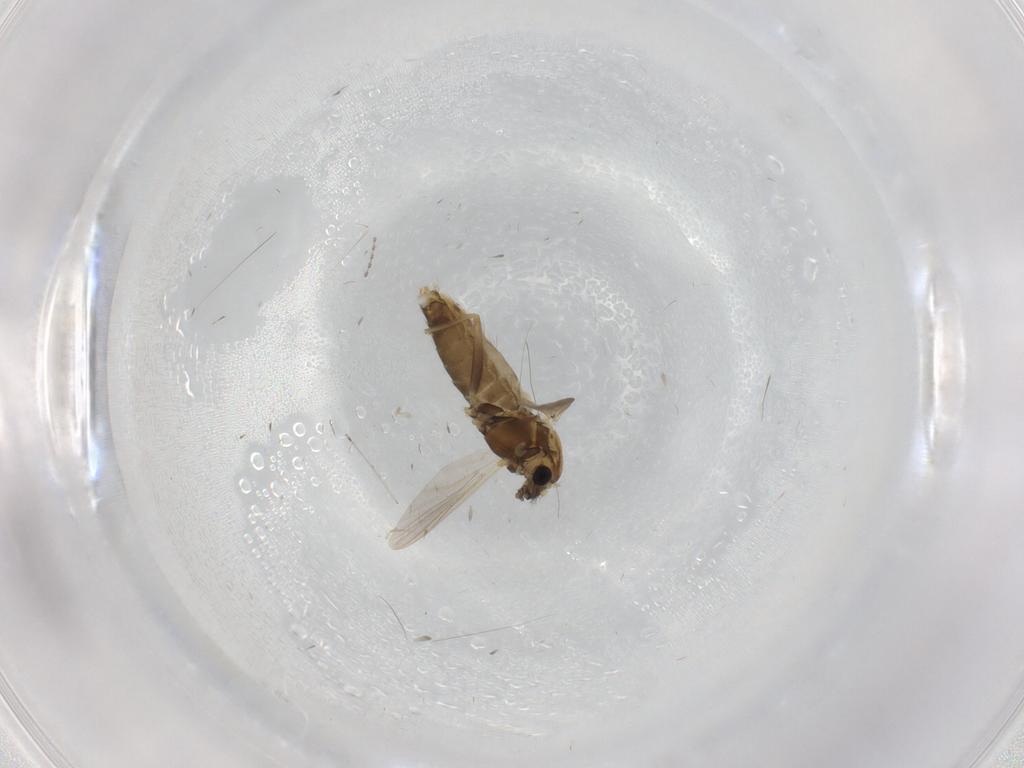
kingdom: Animalia
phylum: Arthropoda
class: Insecta
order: Diptera
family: Chironomidae
